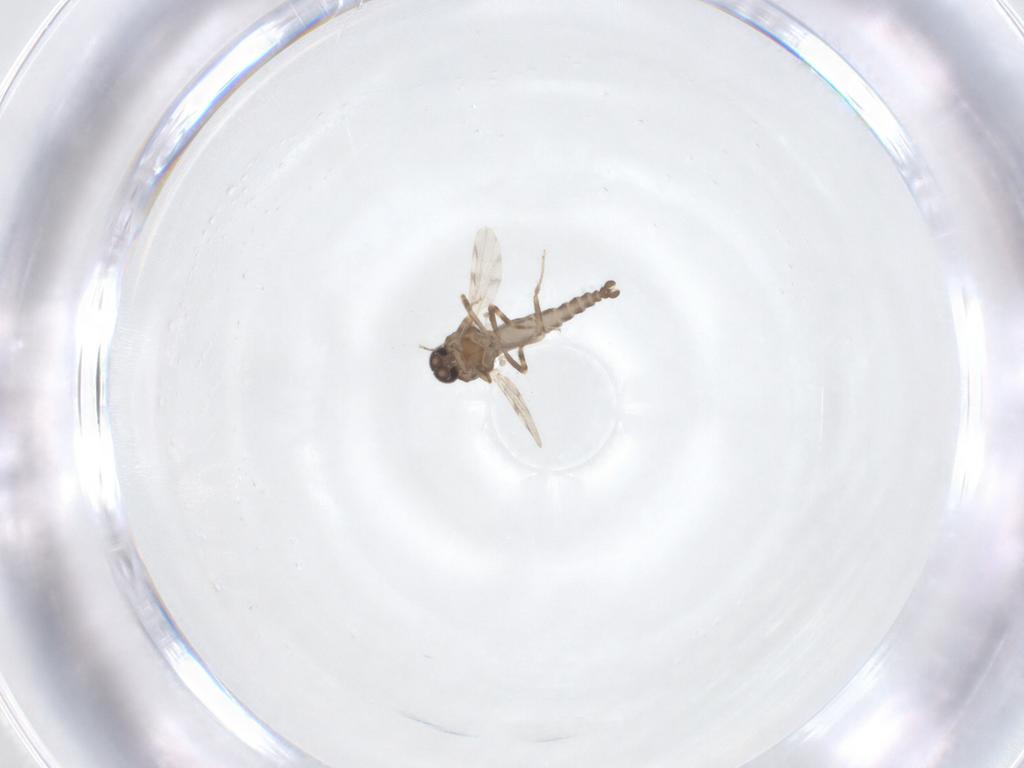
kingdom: Animalia
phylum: Arthropoda
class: Insecta
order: Diptera
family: Ceratopogonidae
